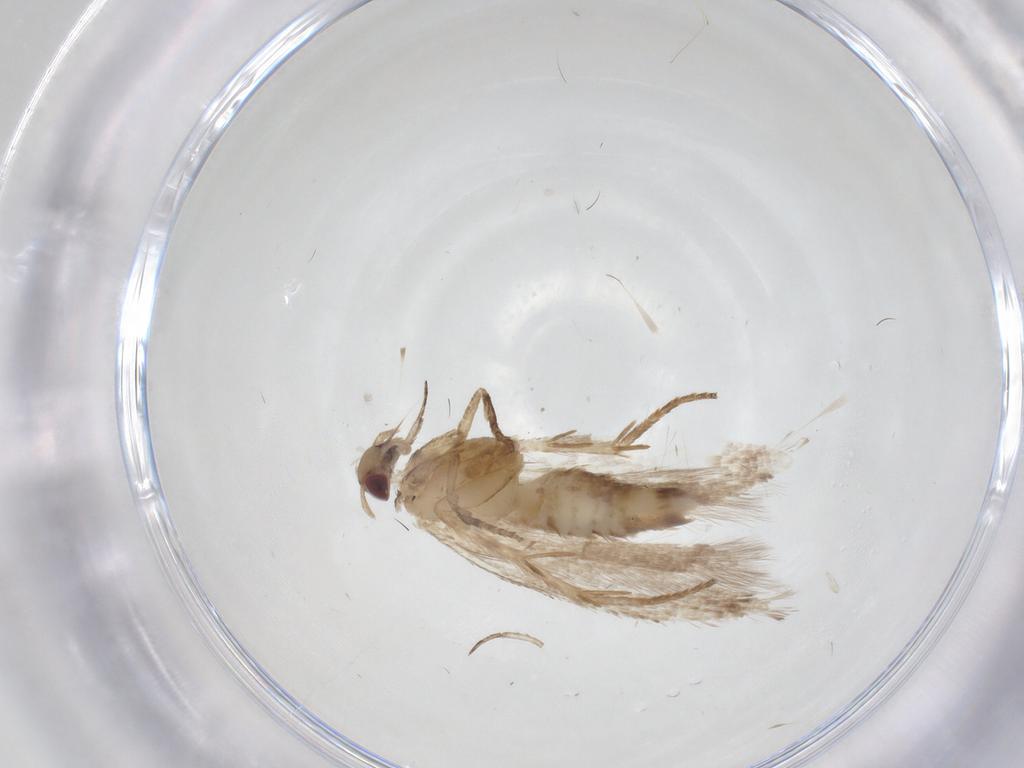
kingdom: Animalia
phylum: Arthropoda
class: Insecta
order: Lepidoptera
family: Gelechiidae
